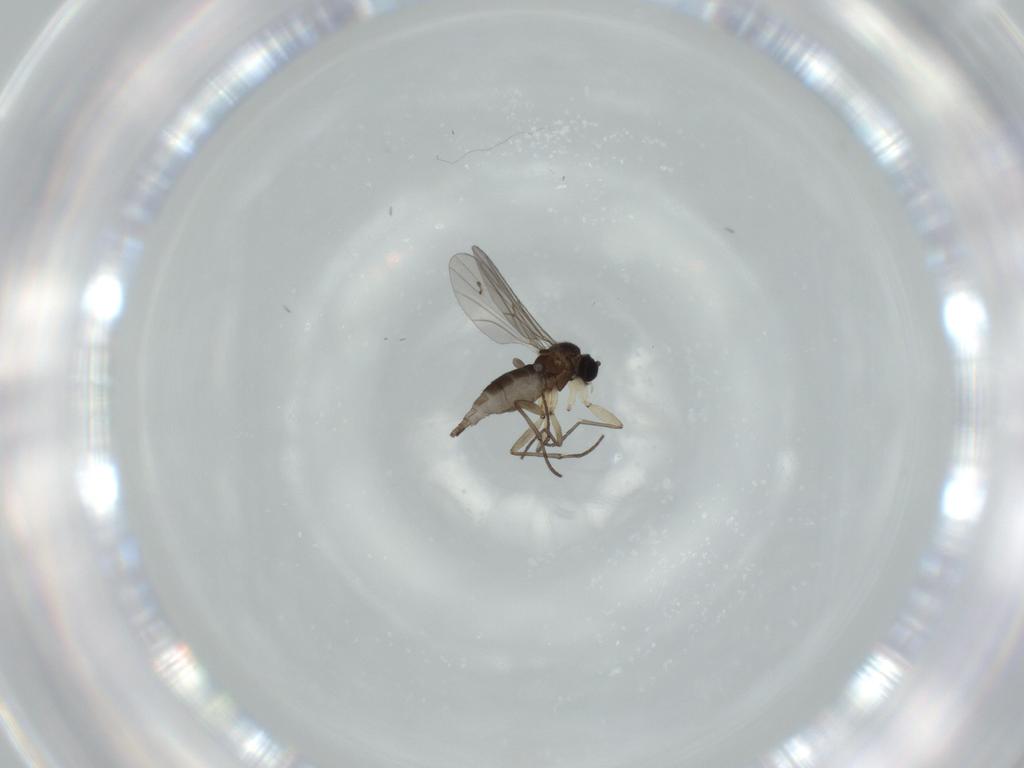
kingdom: Animalia
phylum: Arthropoda
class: Insecta
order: Diptera
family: Sciaridae
